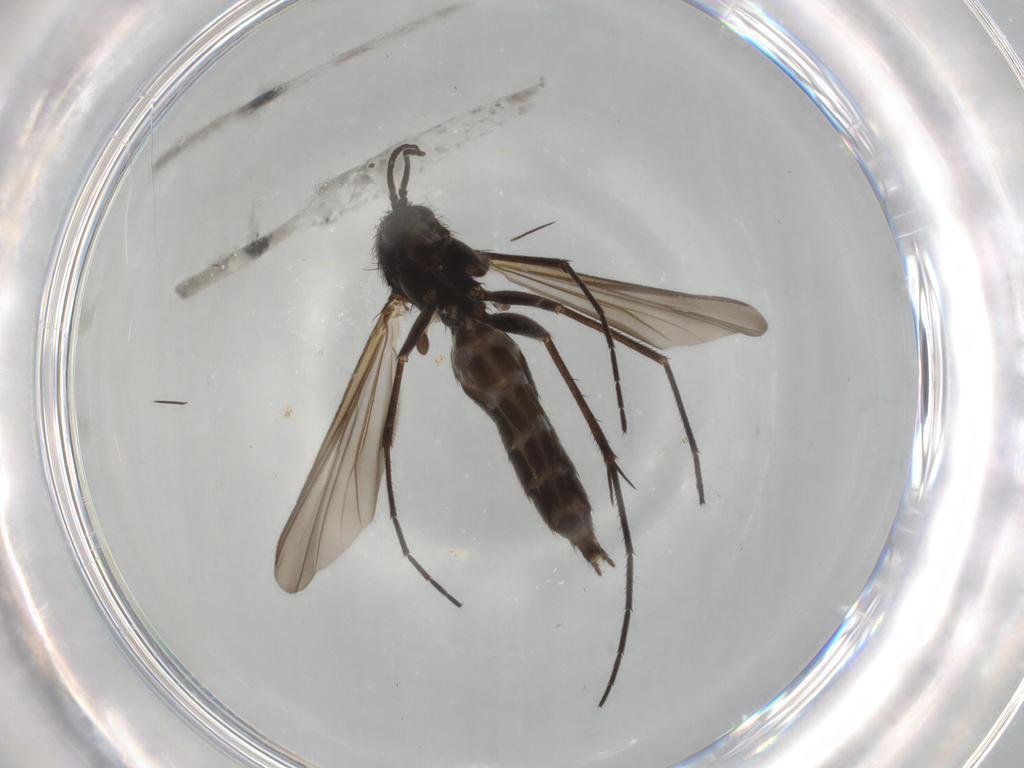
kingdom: Animalia
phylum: Arthropoda
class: Insecta
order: Diptera
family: Mycetophilidae
